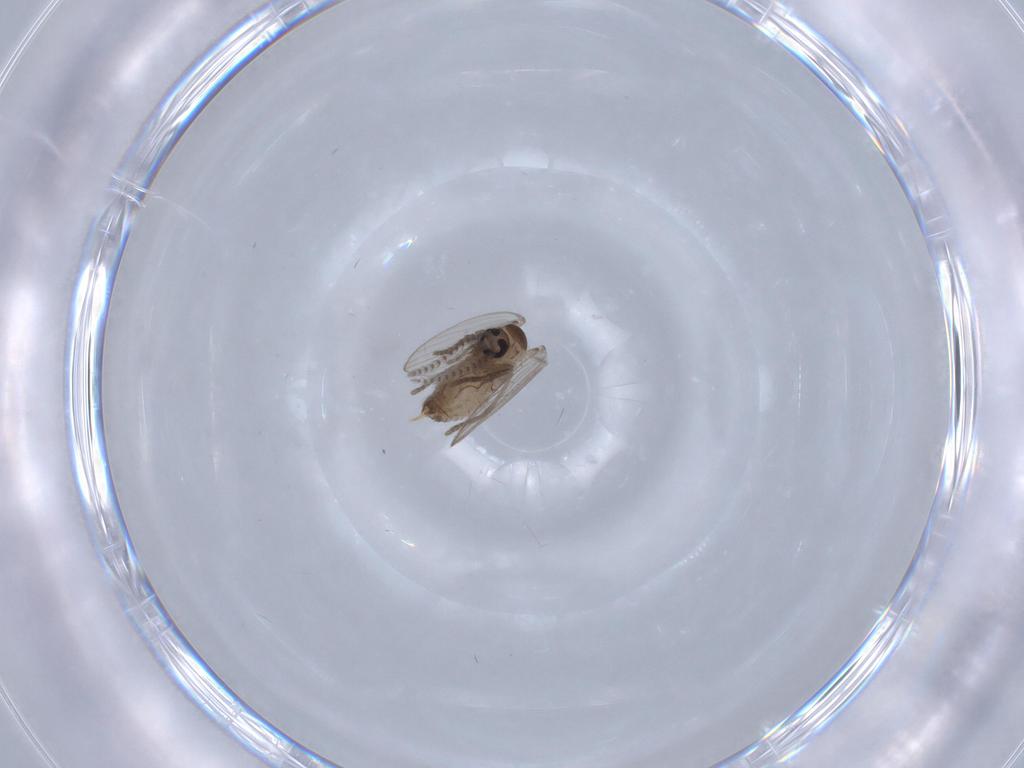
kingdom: Animalia
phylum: Arthropoda
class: Insecta
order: Diptera
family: Psychodidae
